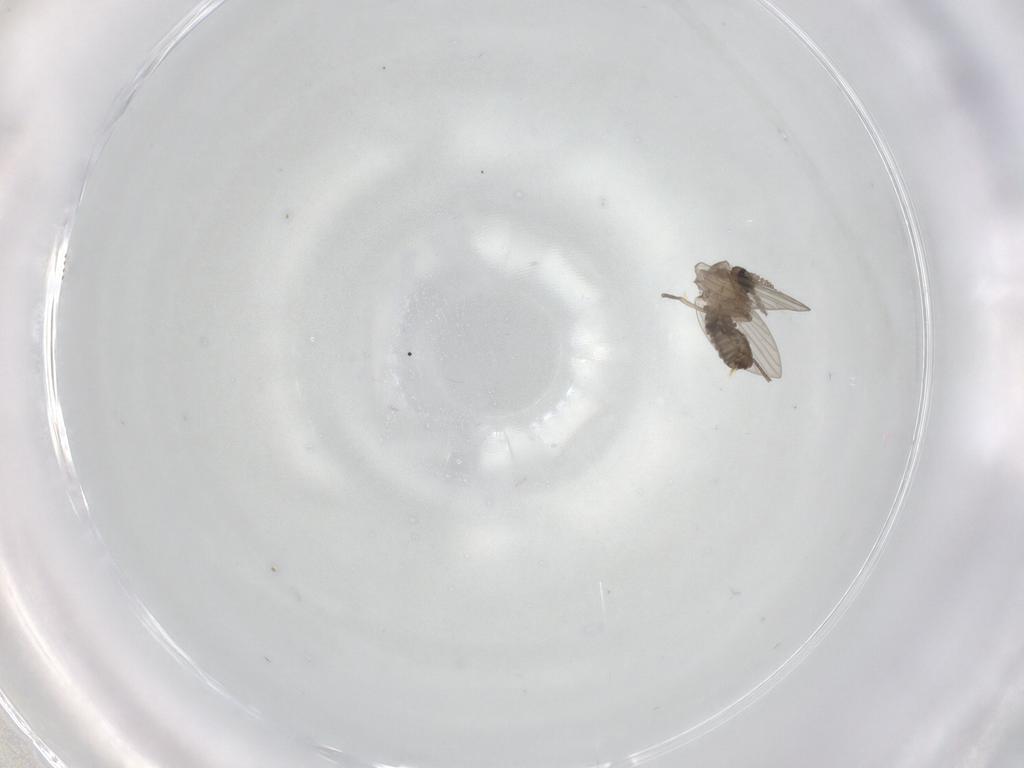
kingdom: Animalia
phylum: Arthropoda
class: Insecta
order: Diptera
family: Psychodidae
